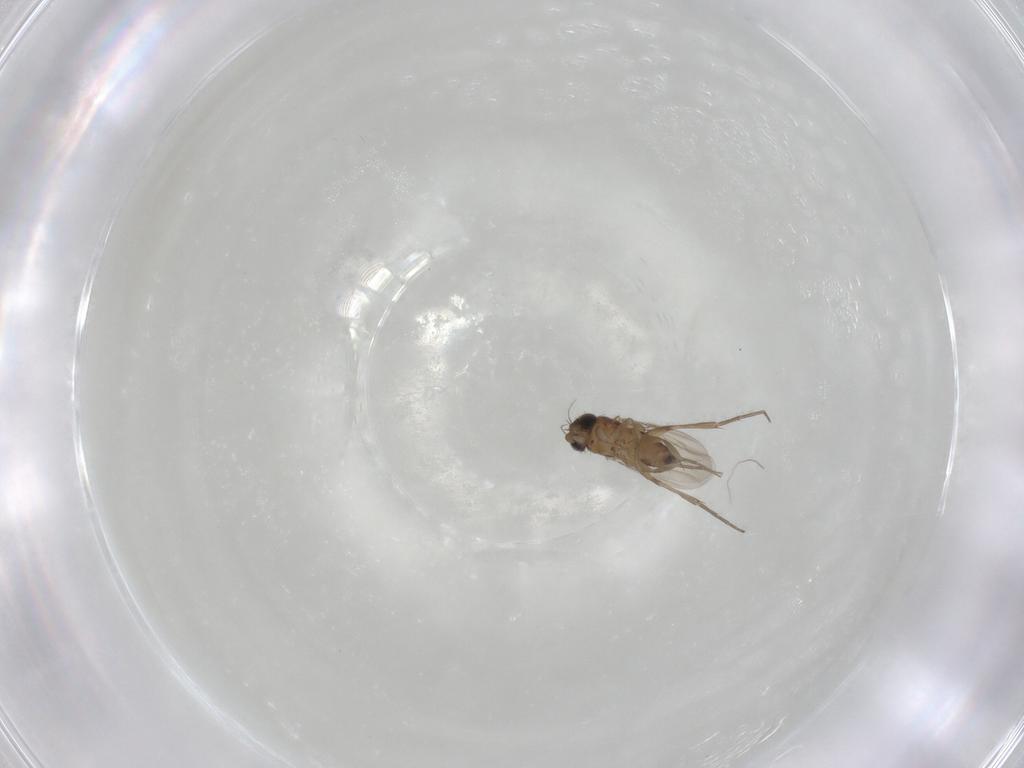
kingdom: Animalia
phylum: Arthropoda
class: Insecta
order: Diptera
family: Phoridae
